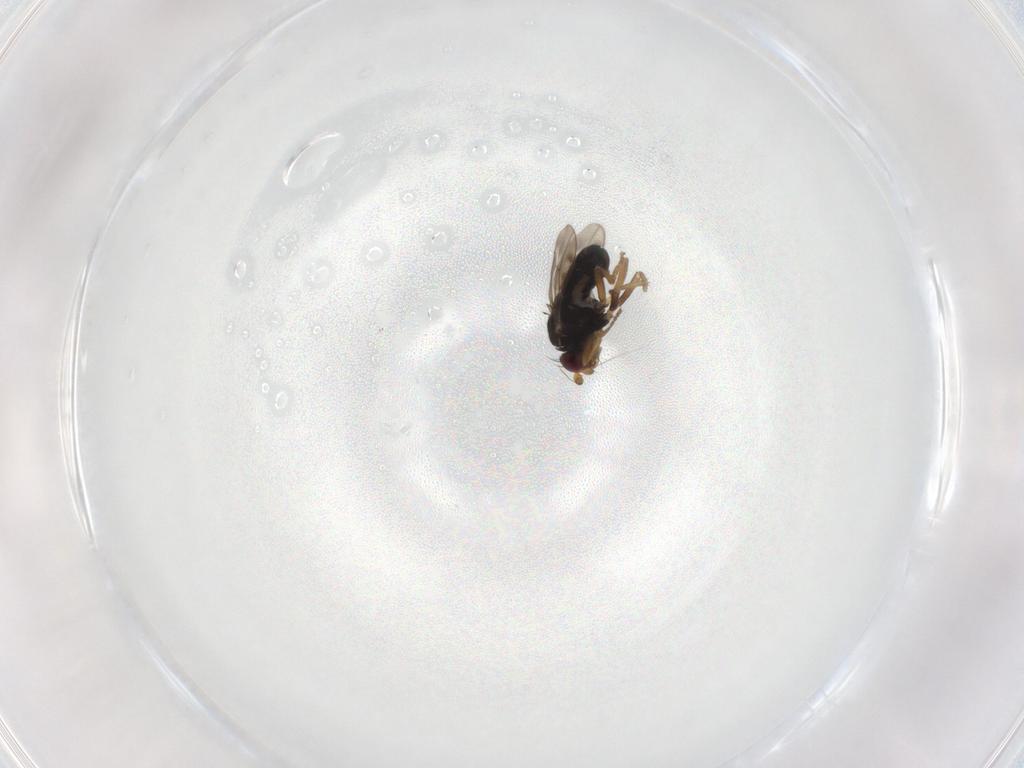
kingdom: Animalia
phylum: Arthropoda
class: Insecta
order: Diptera
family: Sphaeroceridae
